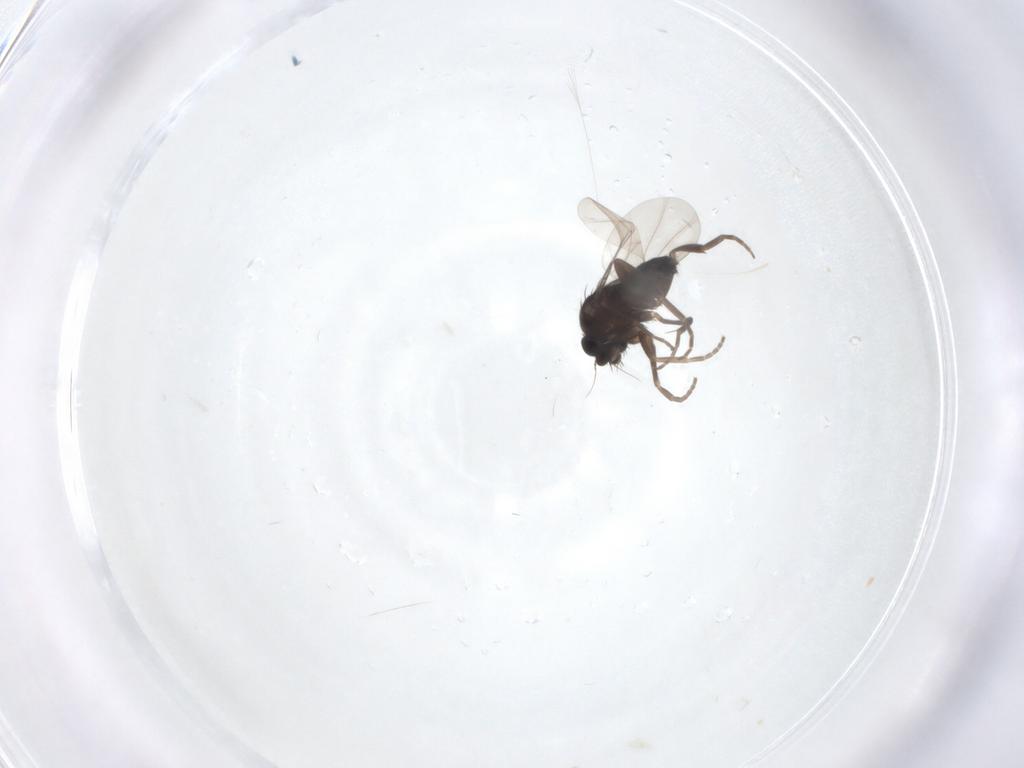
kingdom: Animalia
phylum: Arthropoda
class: Insecta
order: Diptera
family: Phoridae
